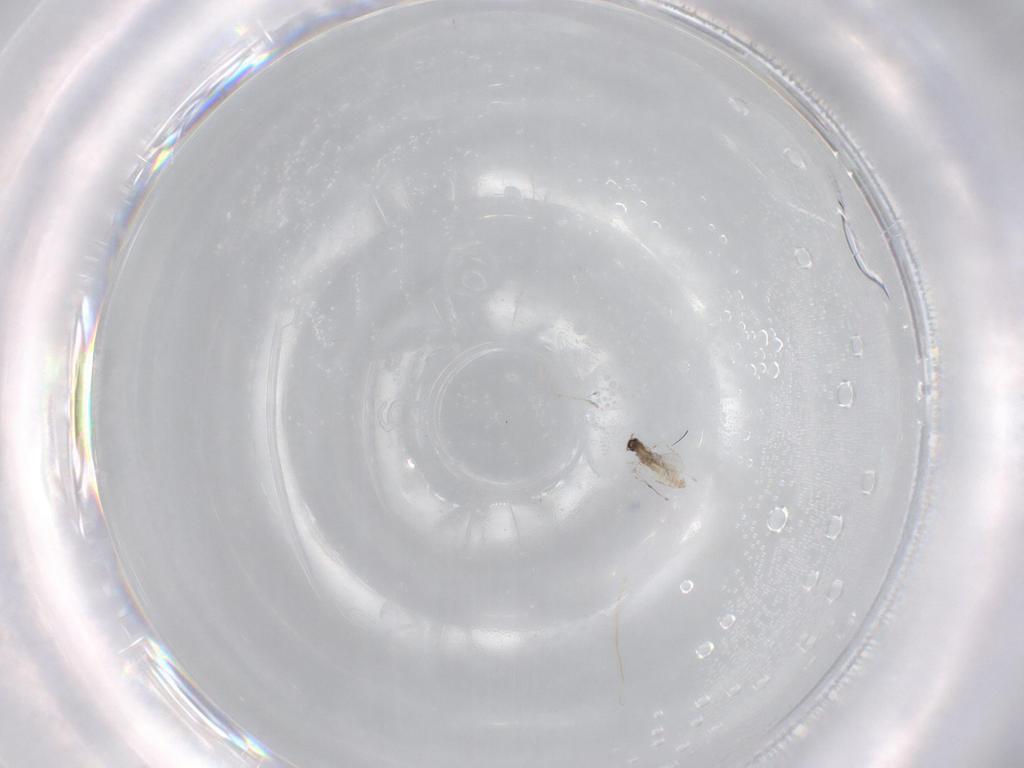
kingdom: Animalia
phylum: Arthropoda
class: Insecta
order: Diptera
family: Cecidomyiidae
